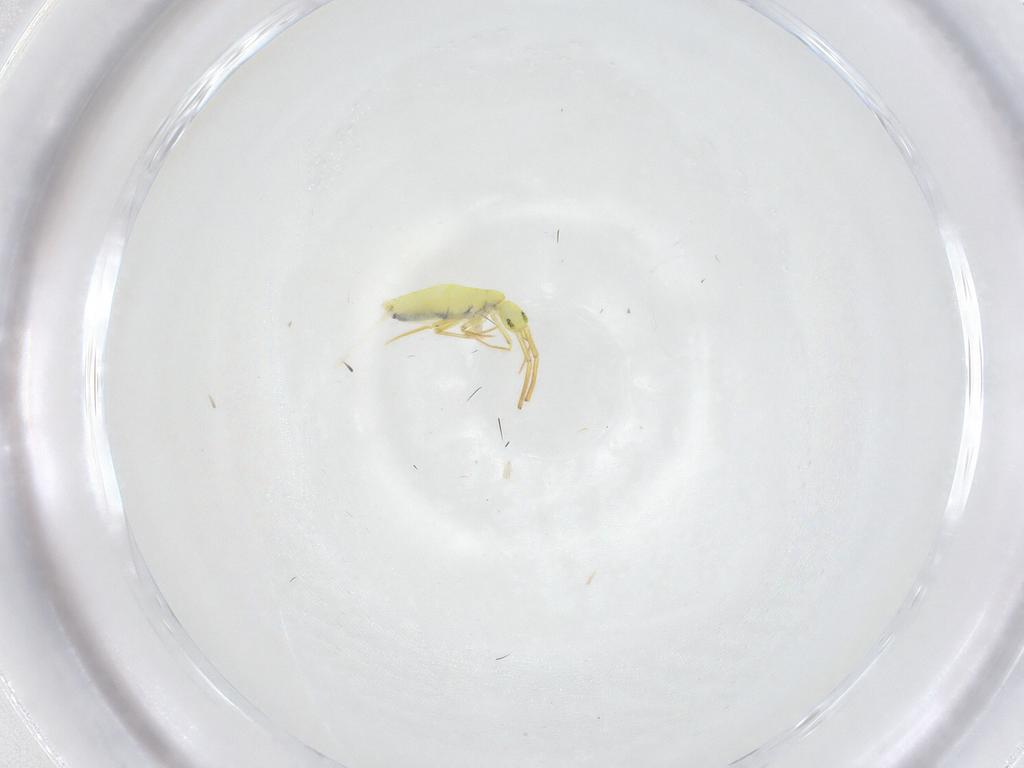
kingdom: Animalia
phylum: Arthropoda
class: Collembola
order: Entomobryomorpha
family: Entomobryidae
